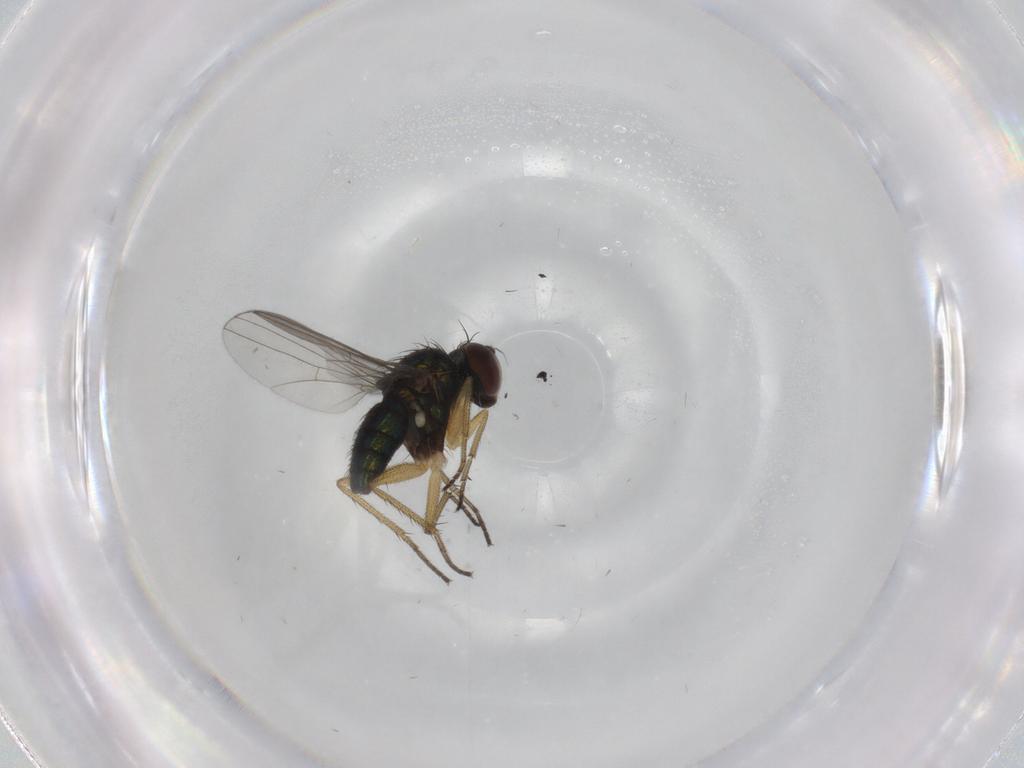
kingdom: Animalia
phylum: Arthropoda
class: Insecta
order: Diptera
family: Dolichopodidae
